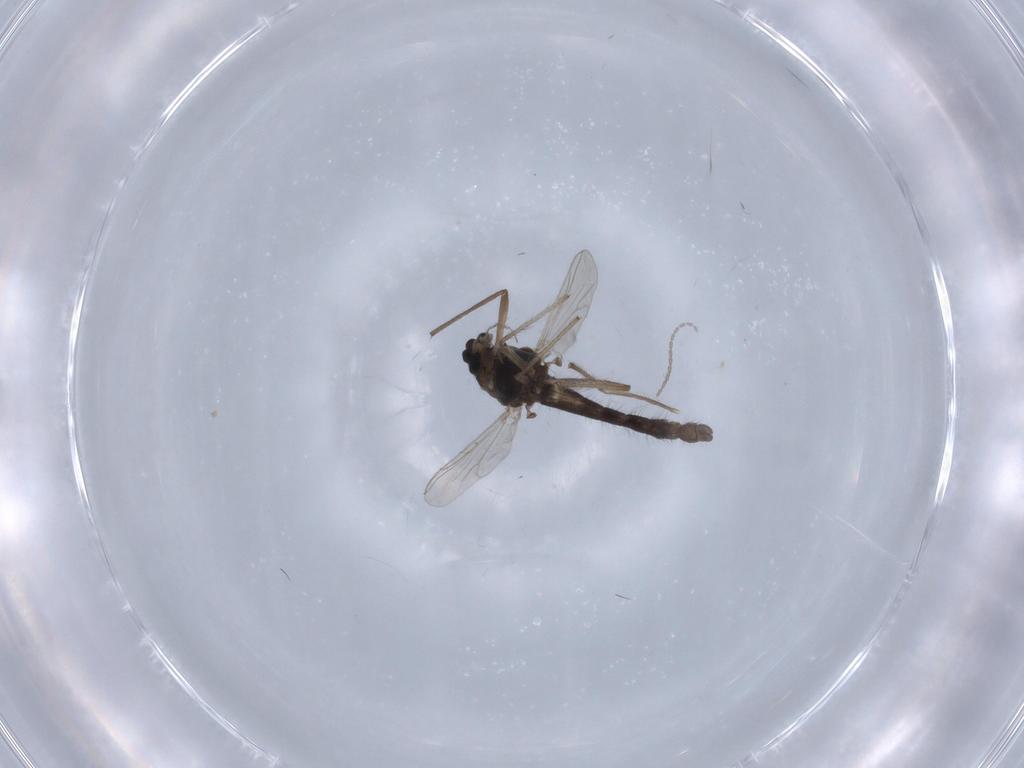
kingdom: Animalia
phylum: Arthropoda
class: Insecta
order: Diptera
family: Chironomidae
